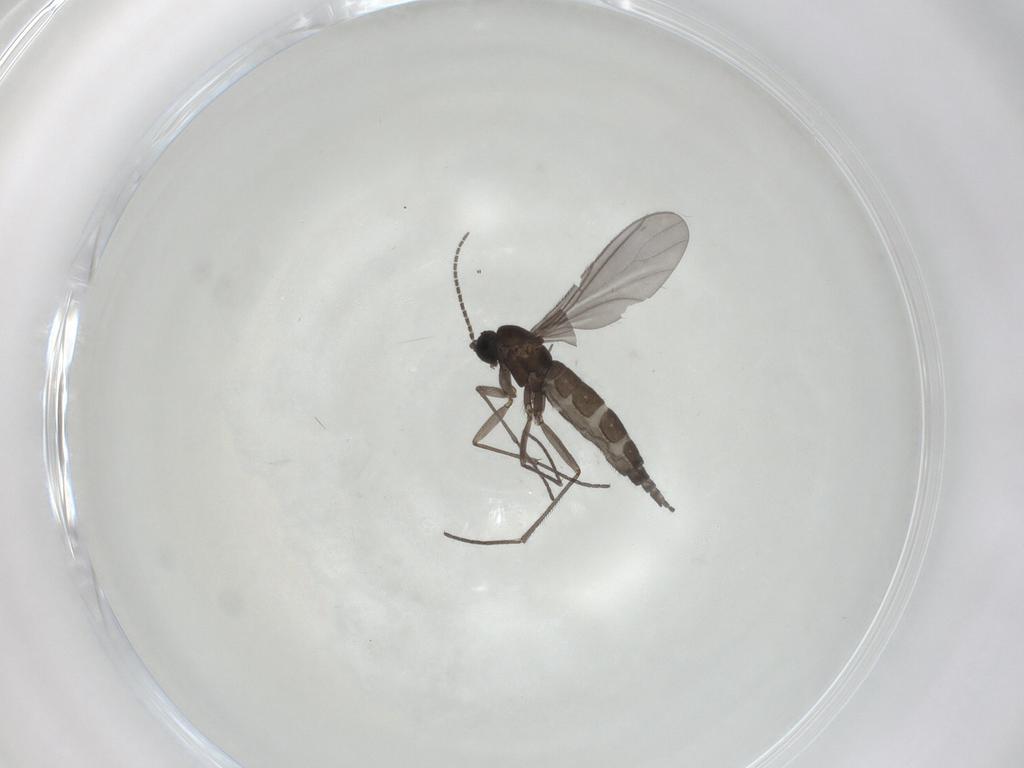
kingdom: Animalia
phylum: Arthropoda
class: Insecta
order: Diptera
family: Sciaridae
